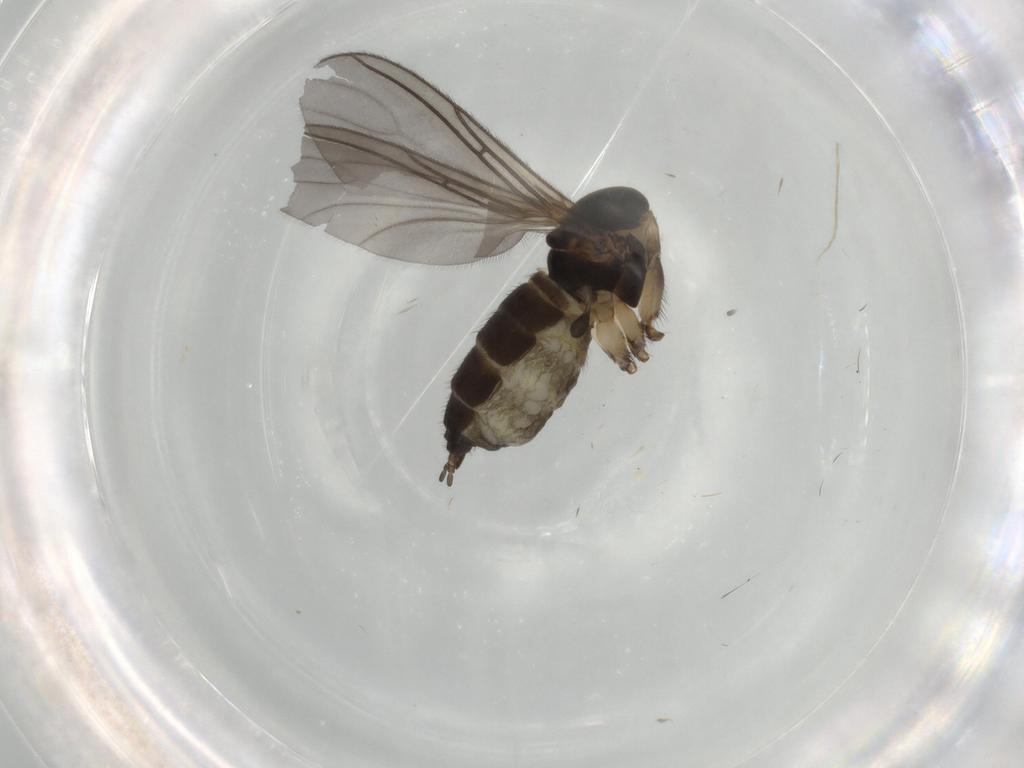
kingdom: Animalia
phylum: Arthropoda
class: Insecta
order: Diptera
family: Sciaridae
